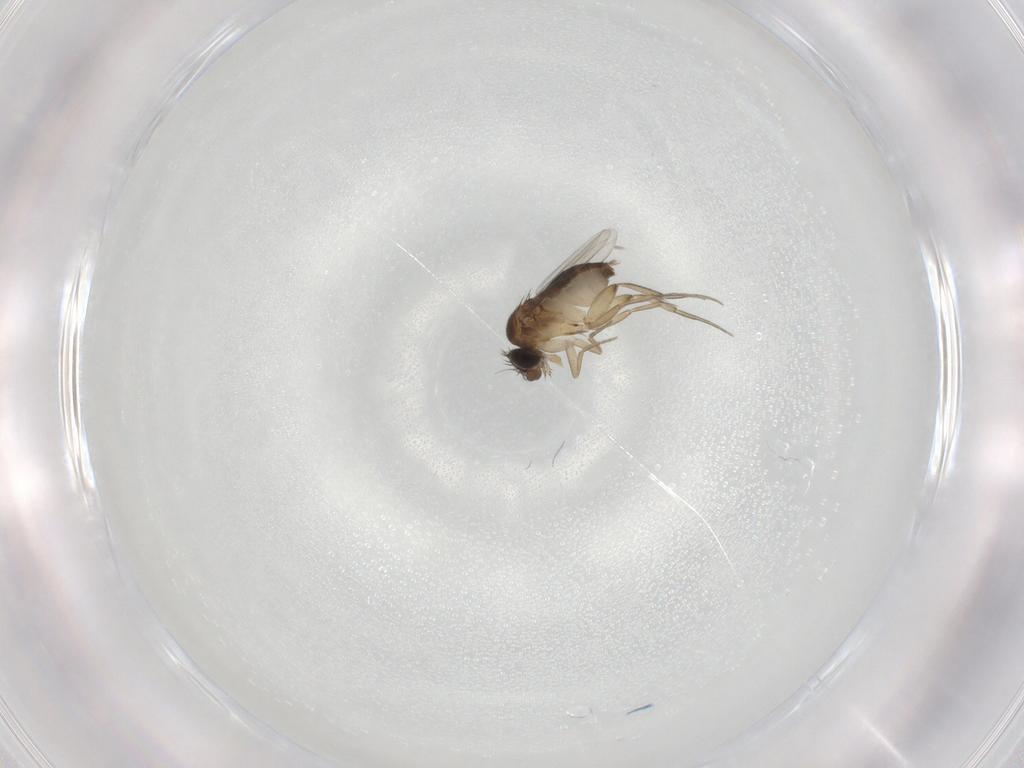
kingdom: Animalia
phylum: Arthropoda
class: Insecta
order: Diptera
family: Phoridae
